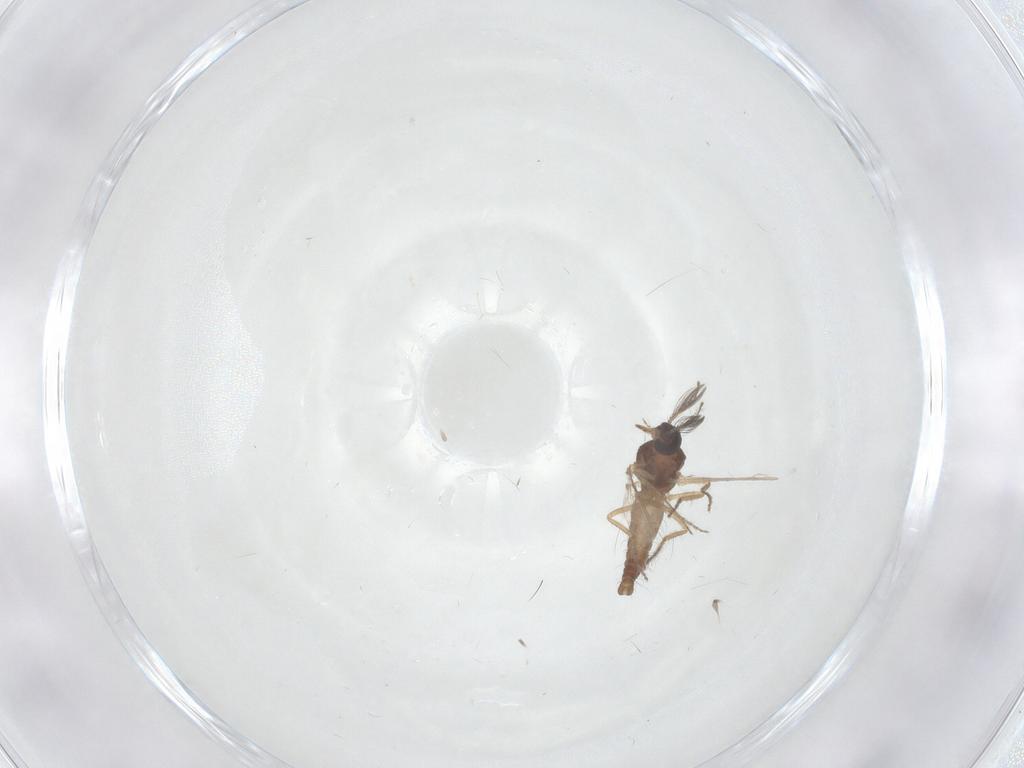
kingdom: Animalia
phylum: Arthropoda
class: Insecta
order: Diptera
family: Ceratopogonidae
